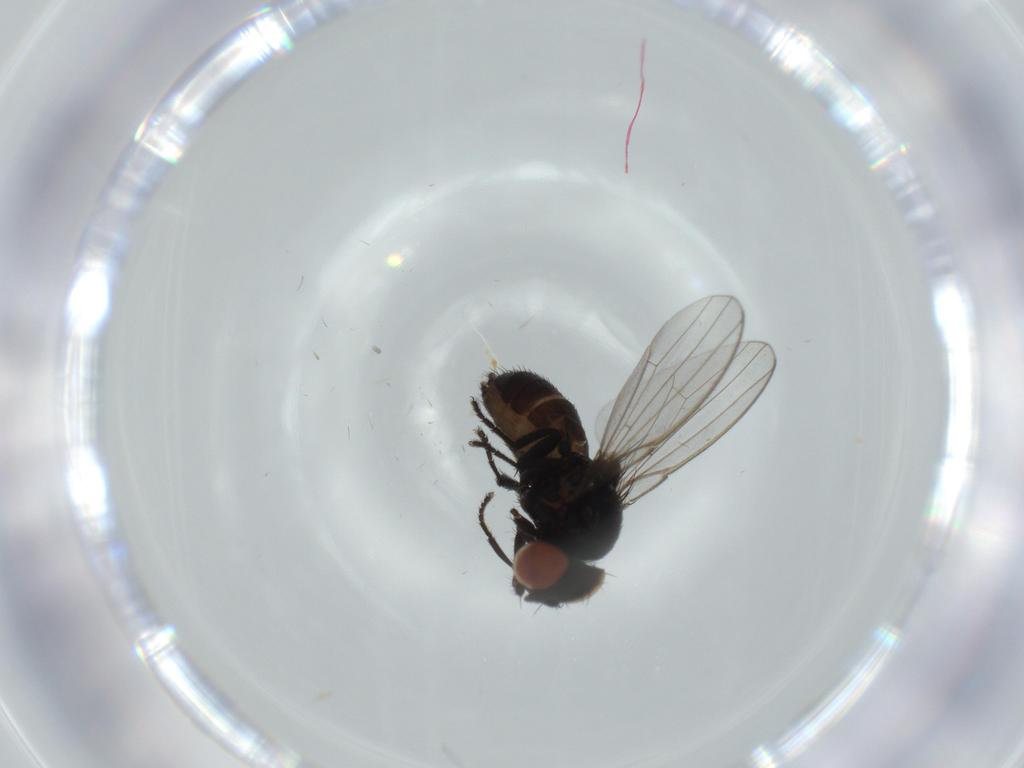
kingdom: Animalia
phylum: Arthropoda
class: Insecta
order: Diptera
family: Milichiidae
